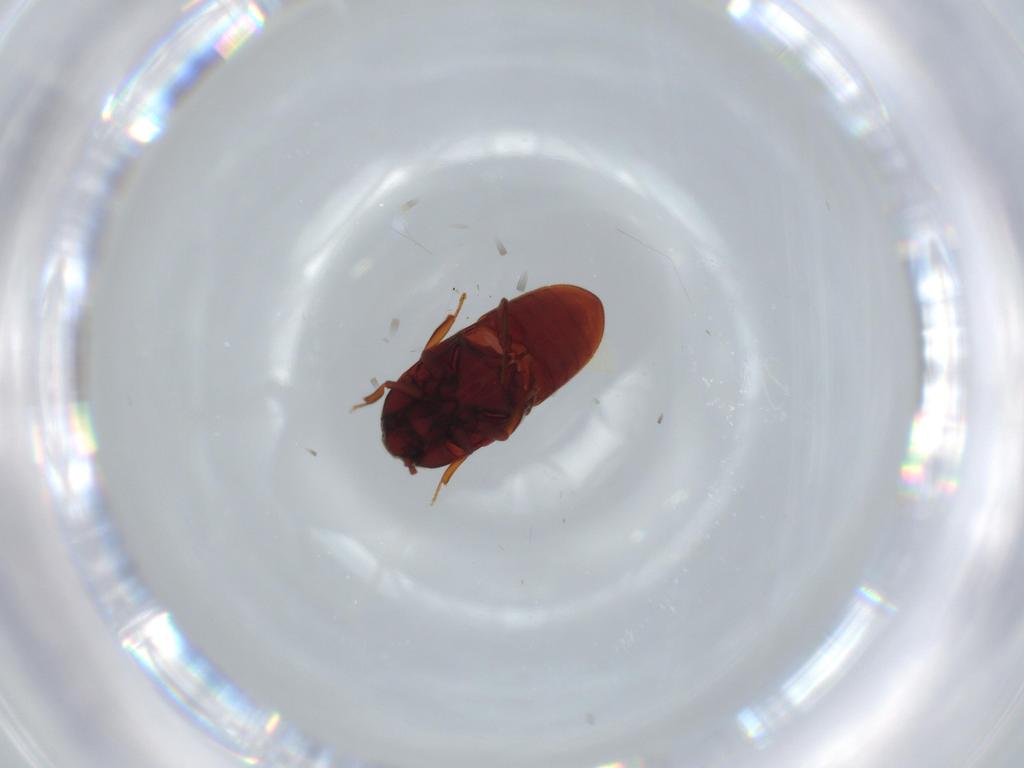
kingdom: Animalia
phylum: Arthropoda
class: Insecta
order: Coleoptera
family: Throscidae
